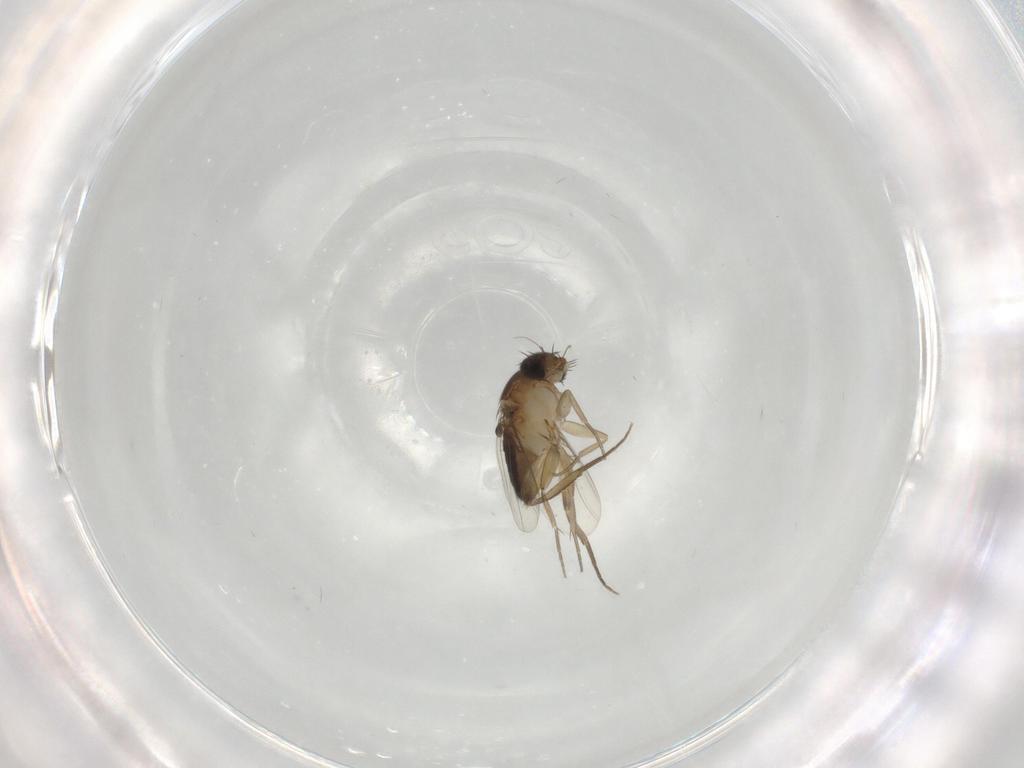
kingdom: Animalia
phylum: Arthropoda
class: Insecta
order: Diptera
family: Phoridae
